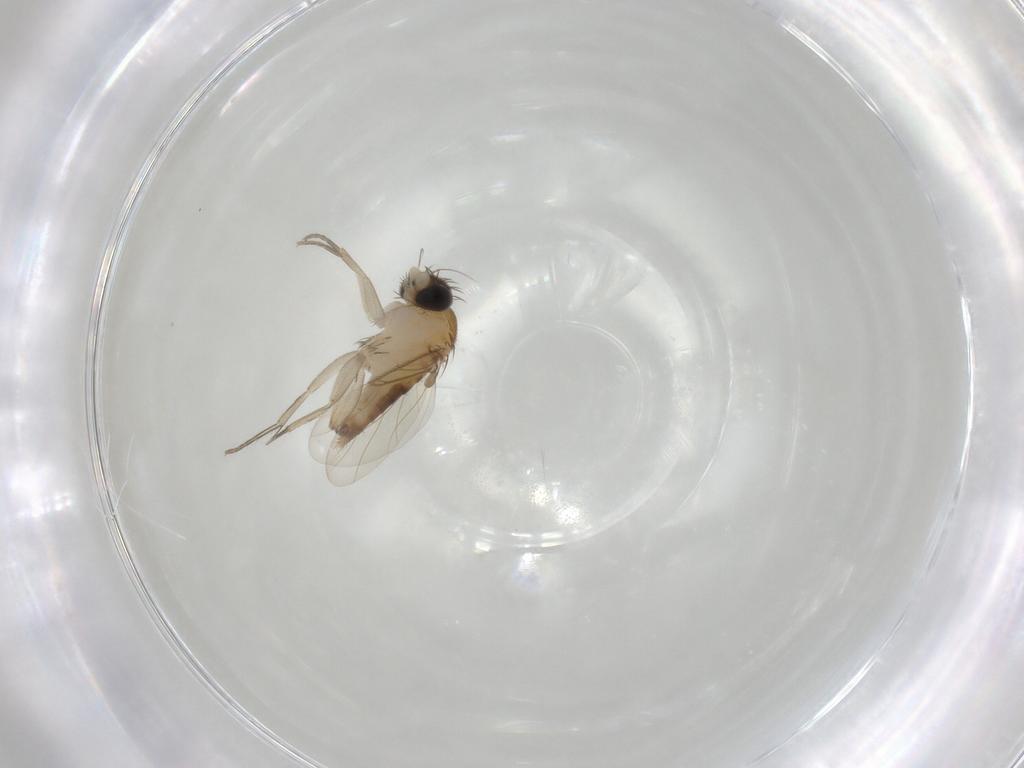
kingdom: Animalia
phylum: Arthropoda
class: Insecta
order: Diptera
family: Phoridae
